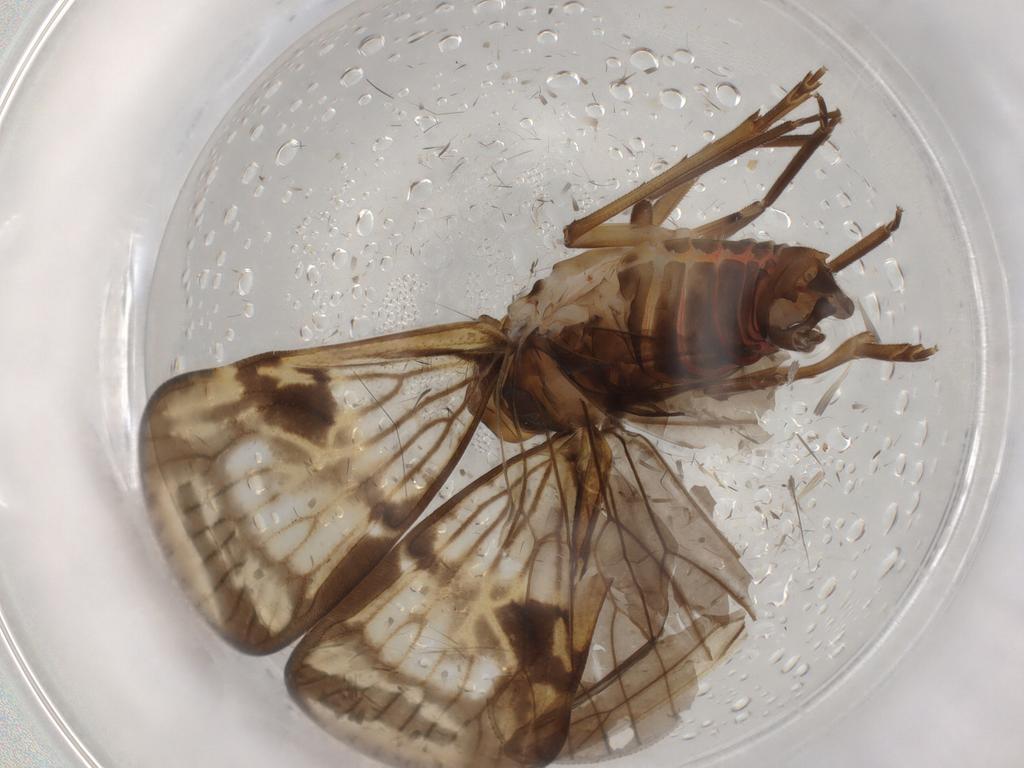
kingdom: Animalia
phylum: Arthropoda
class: Insecta
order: Hemiptera
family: Cixiidae
